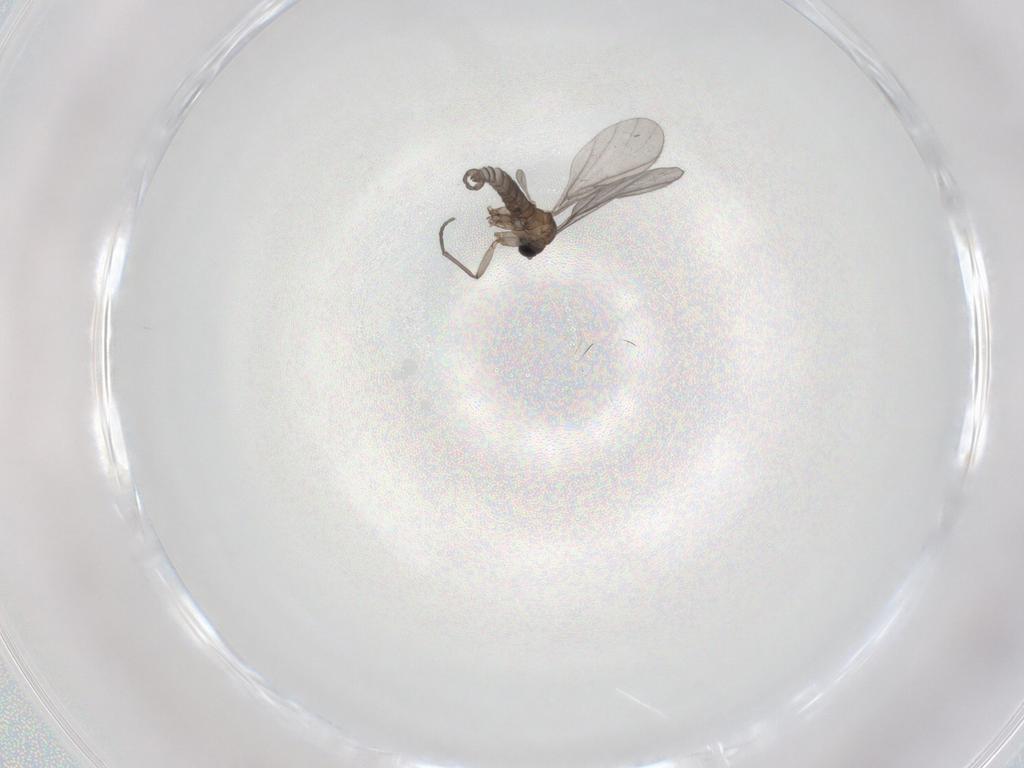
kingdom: Animalia
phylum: Arthropoda
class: Insecta
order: Diptera
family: Sciaridae
